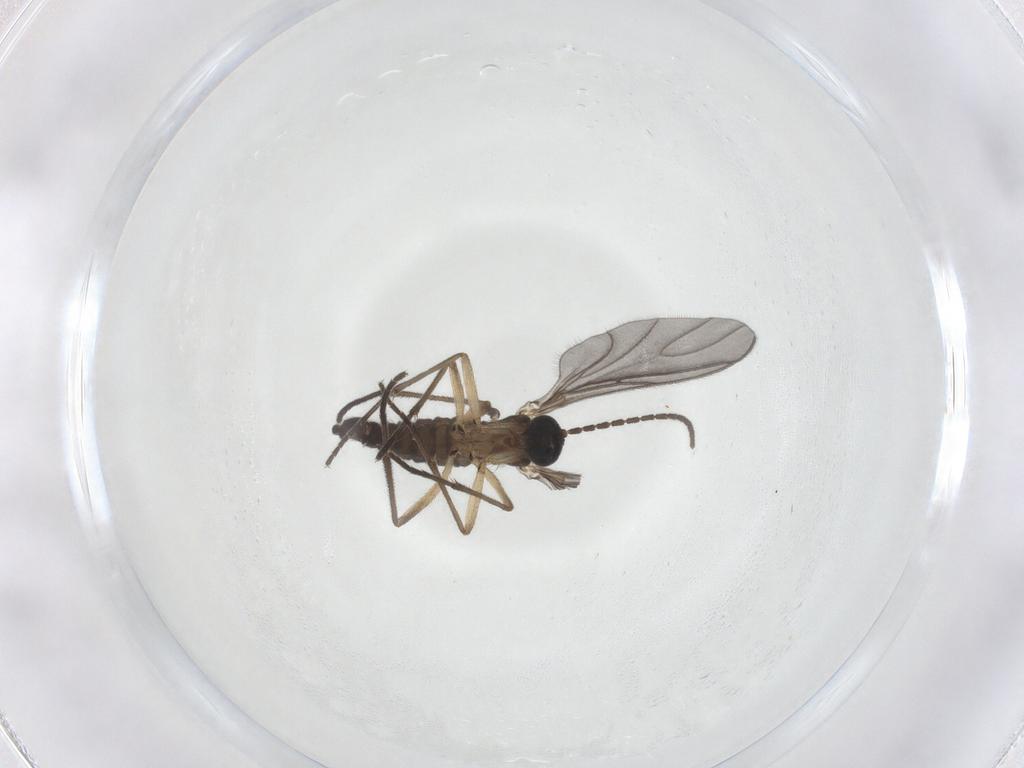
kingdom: Animalia
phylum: Arthropoda
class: Insecta
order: Diptera
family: Sciaridae
